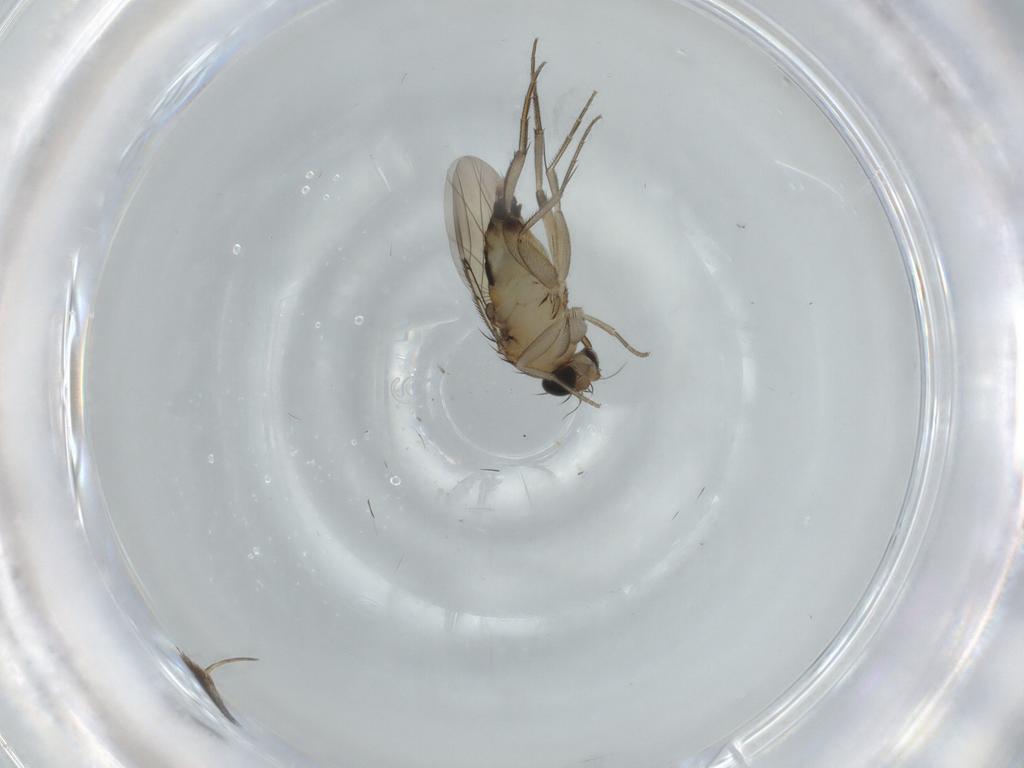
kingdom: Animalia
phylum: Arthropoda
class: Insecta
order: Diptera
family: Phoridae
